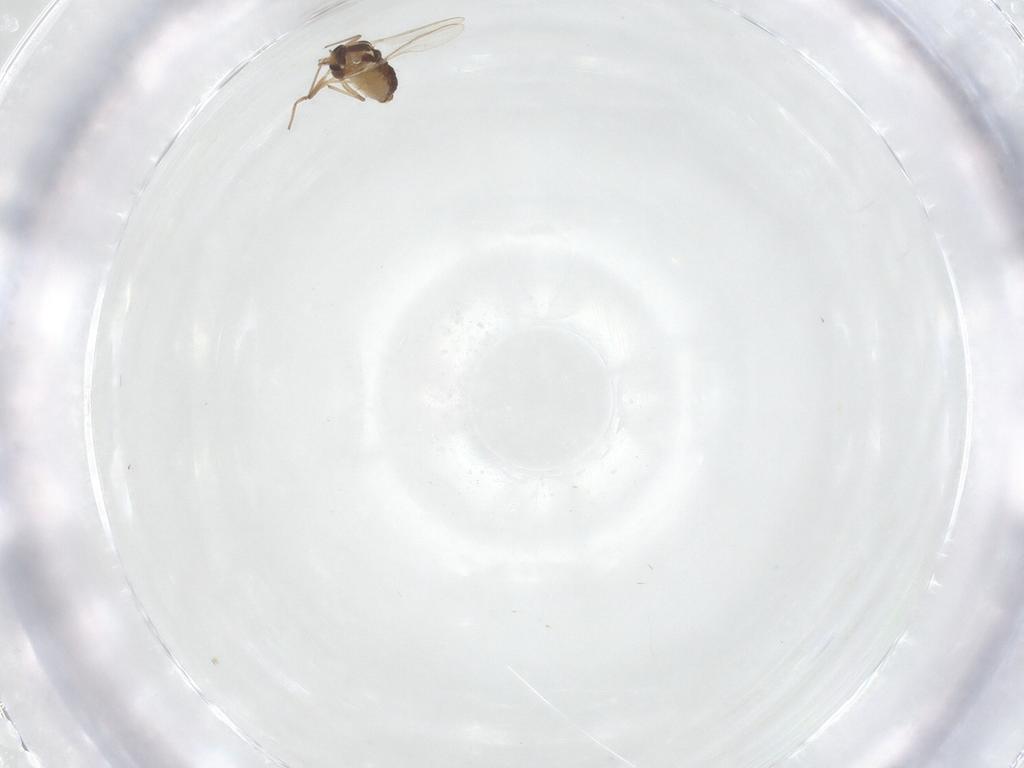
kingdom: Animalia
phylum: Arthropoda
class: Insecta
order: Diptera
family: Chironomidae
